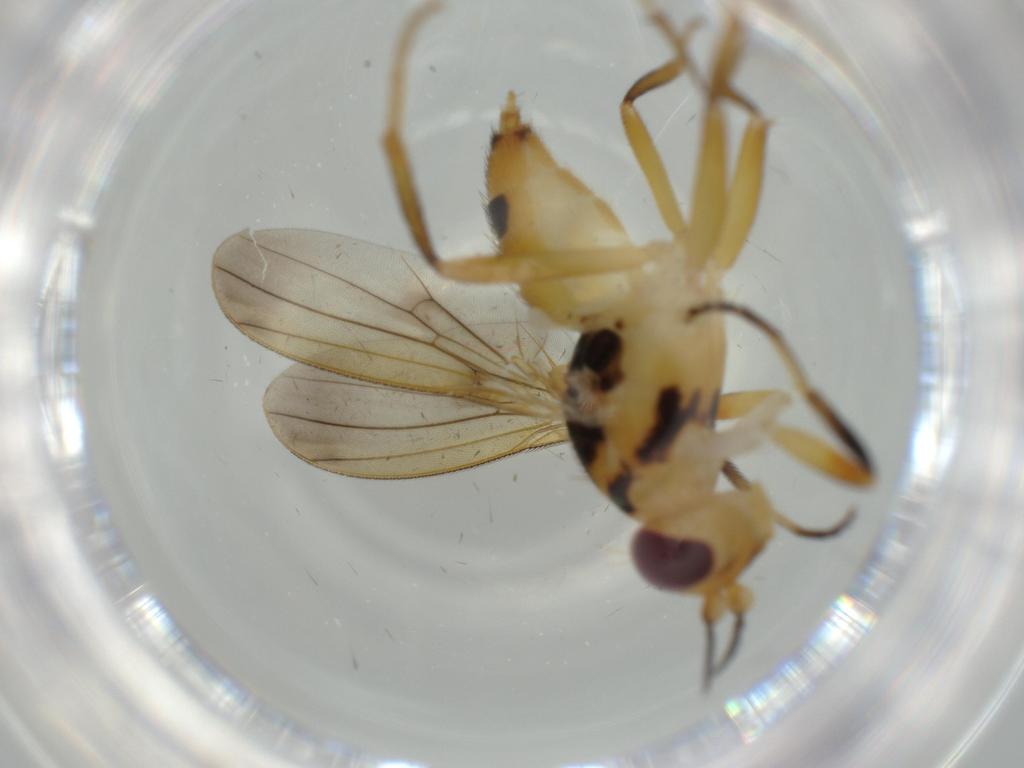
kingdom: Animalia
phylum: Arthropoda
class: Insecta
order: Diptera
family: Clusiidae
